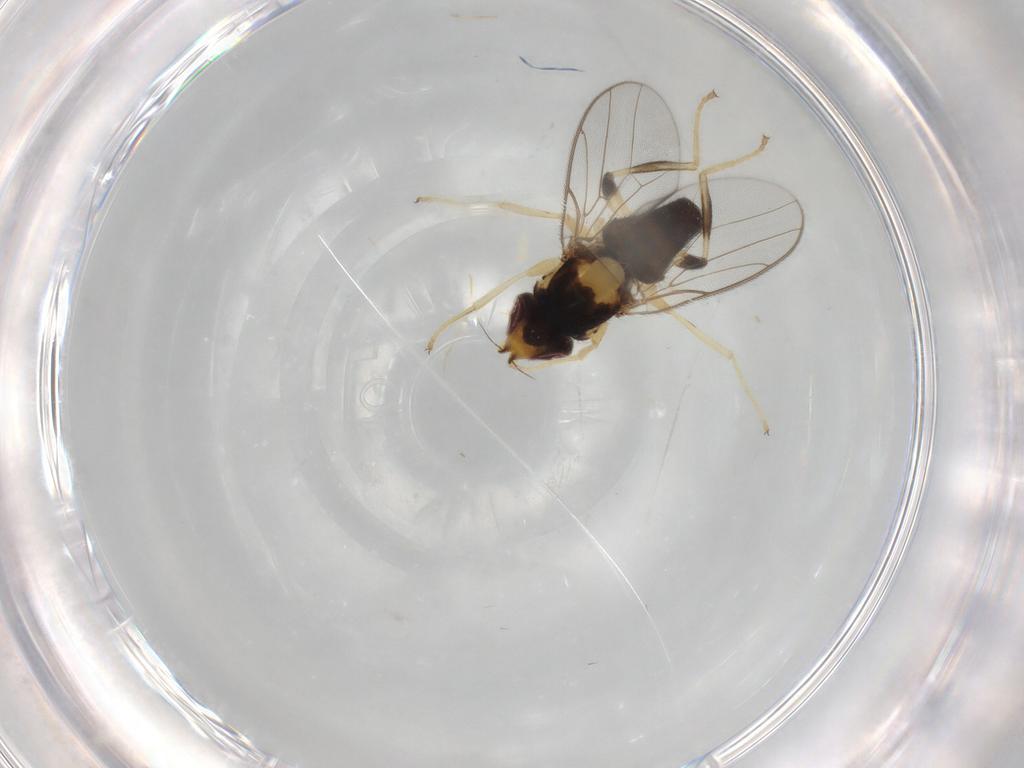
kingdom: Animalia
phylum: Arthropoda
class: Insecta
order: Diptera
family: Chloropidae
